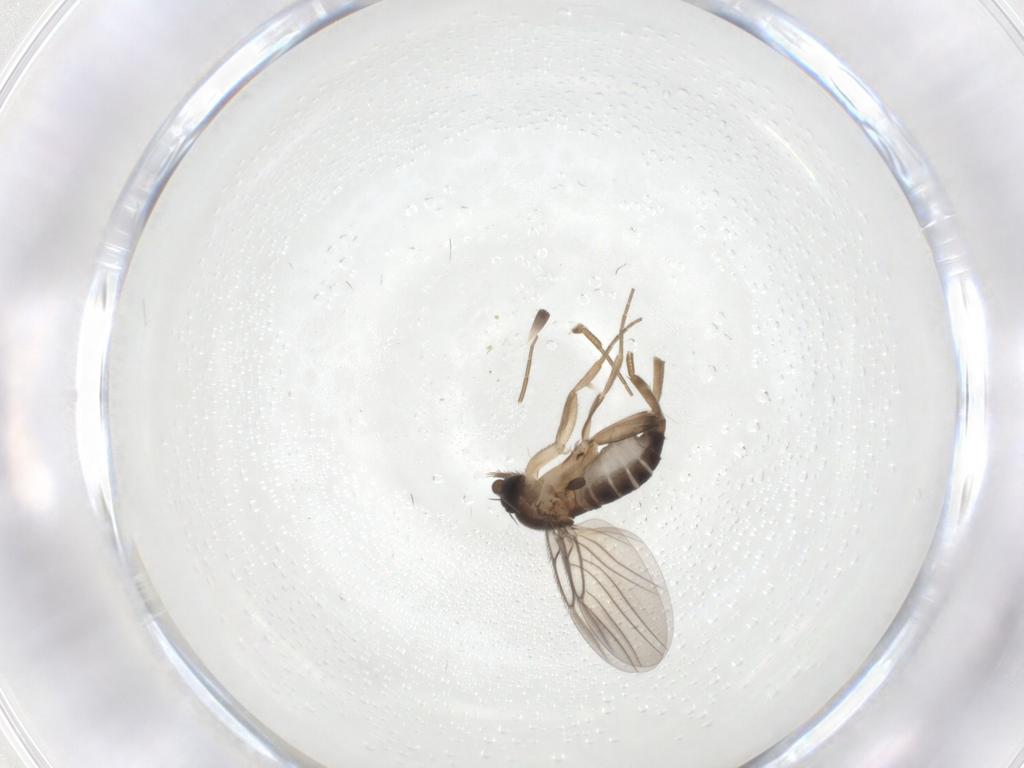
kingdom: Animalia
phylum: Arthropoda
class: Insecta
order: Diptera
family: Phoridae
